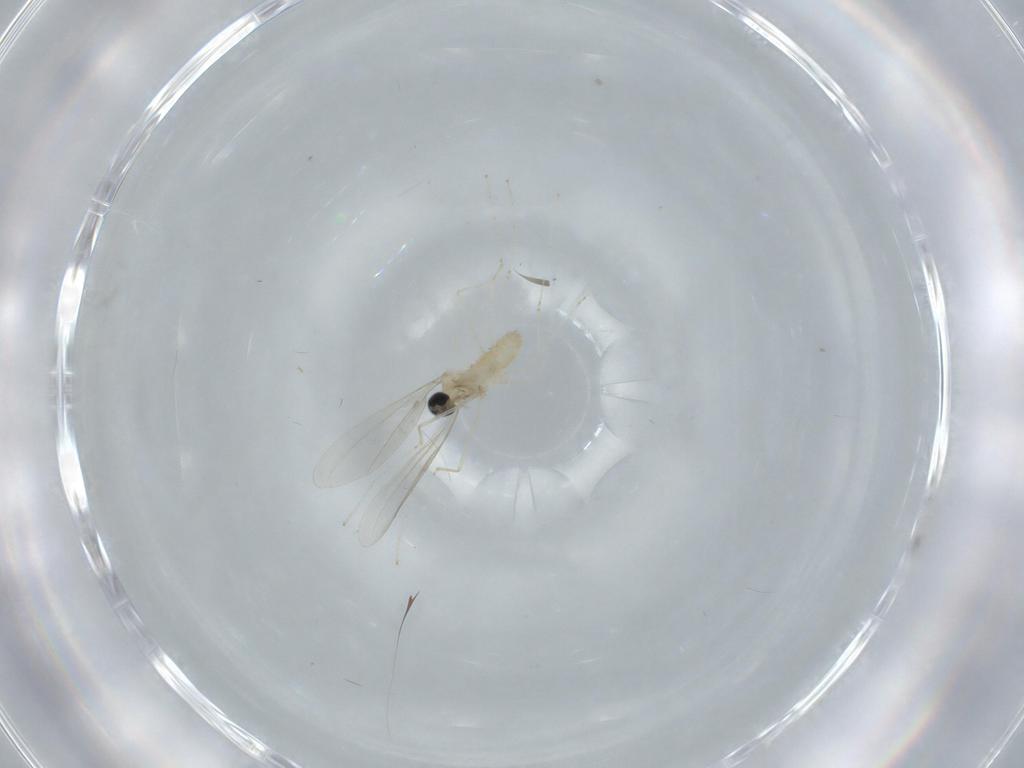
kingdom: Animalia
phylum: Arthropoda
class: Insecta
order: Diptera
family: Cecidomyiidae
